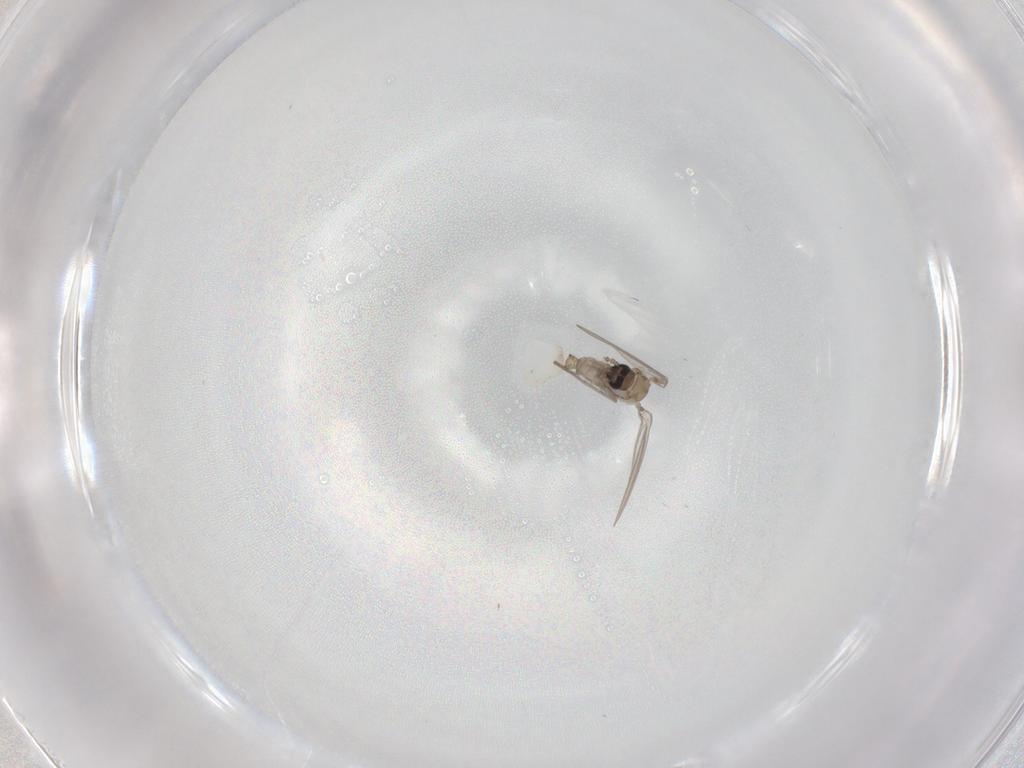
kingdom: Animalia
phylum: Arthropoda
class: Insecta
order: Diptera
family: Psychodidae
